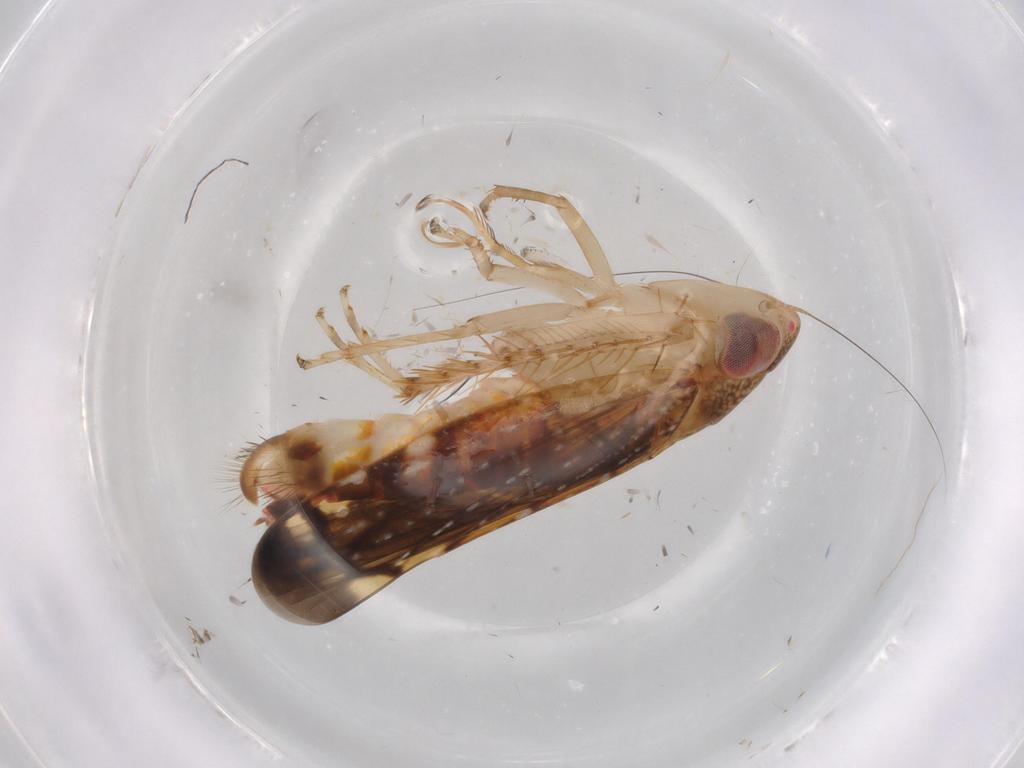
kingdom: Animalia
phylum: Arthropoda
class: Insecta
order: Hemiptera
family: Cicadellidae
